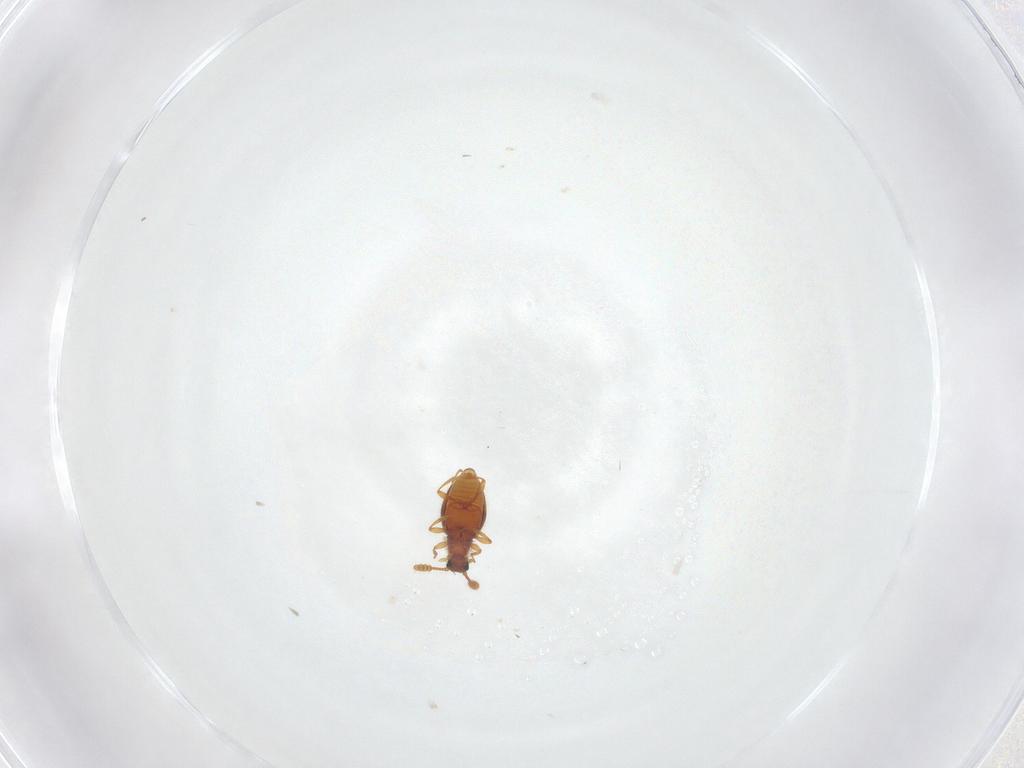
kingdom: Animalia
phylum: Arthropoda
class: Insecta
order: Coleoptera
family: Staphylinidae
